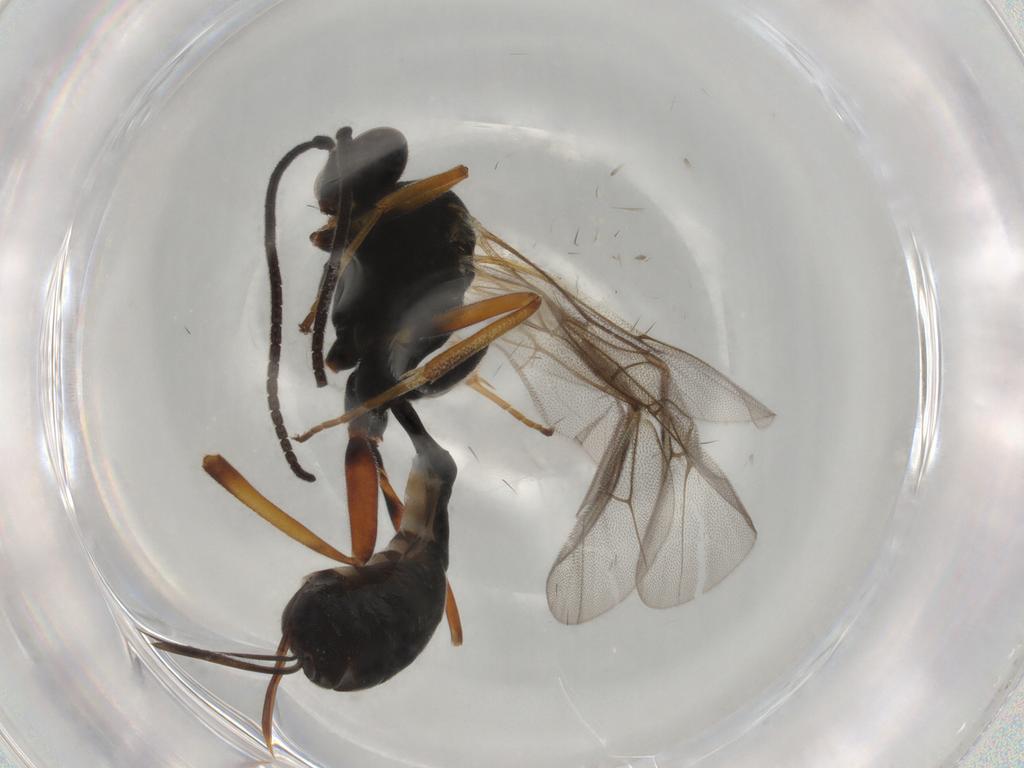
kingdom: Animalia
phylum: Arthropoda
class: Insecta
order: Hymenoptera
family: Ichneumonidae
